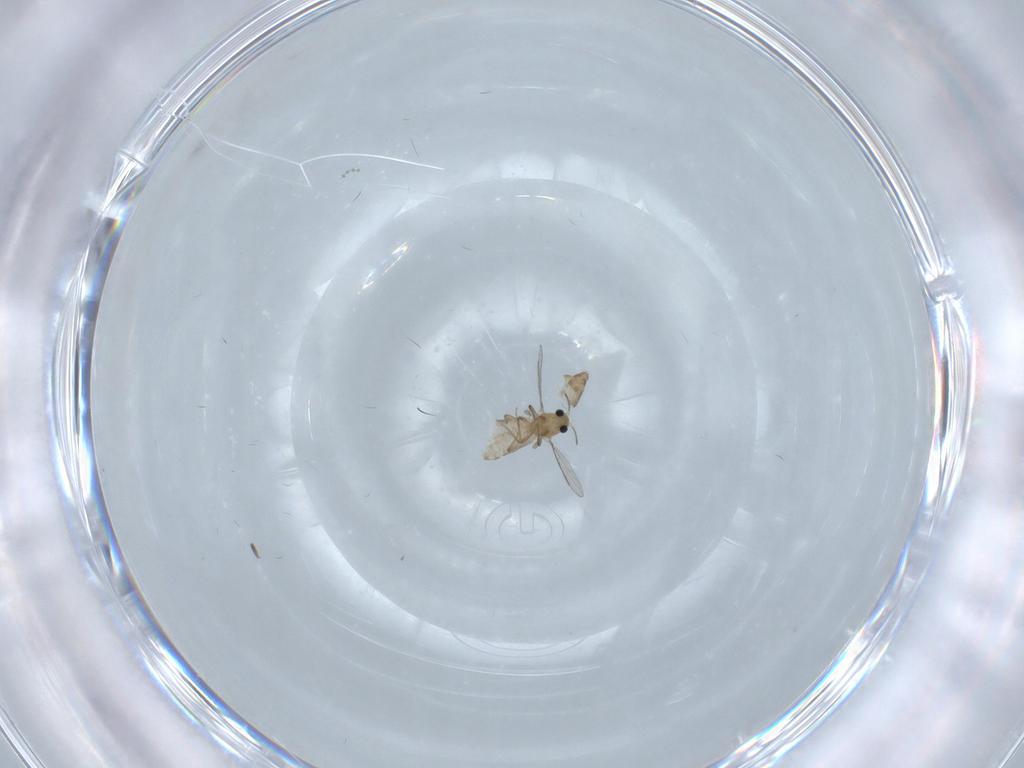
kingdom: Animalia
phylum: Arthropoda
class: Insecta
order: Diptera
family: Chironomidae
